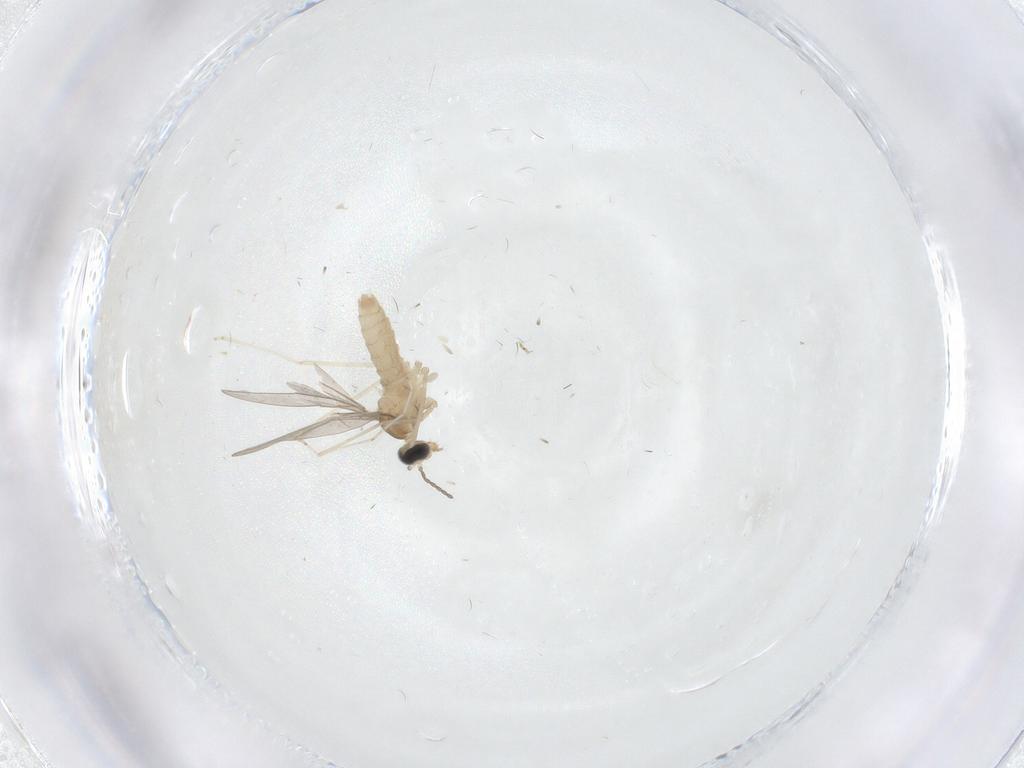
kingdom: Animalia
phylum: Arthropoda
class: Insecta
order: Diptera
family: Cecidomyiidae
